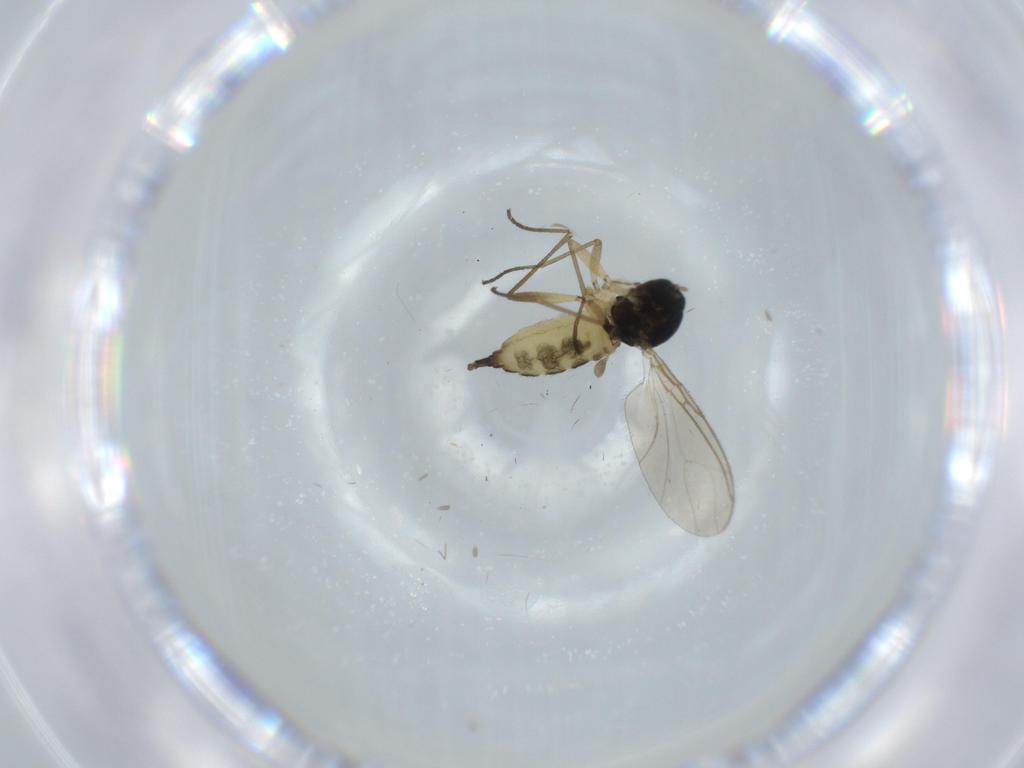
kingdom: Animalia
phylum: Arthropoda
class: Insecta
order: Diptera
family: Sciaridae
